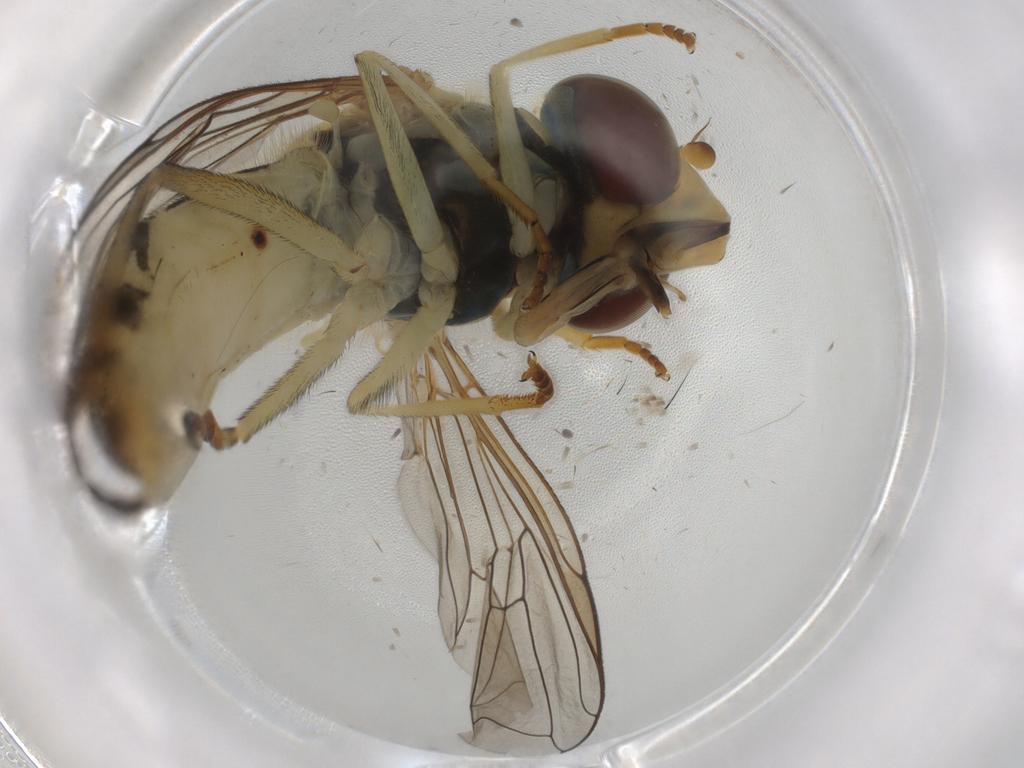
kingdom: Animalia
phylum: Arthropoda
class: Insecta
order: Diptera
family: Syrphidae
